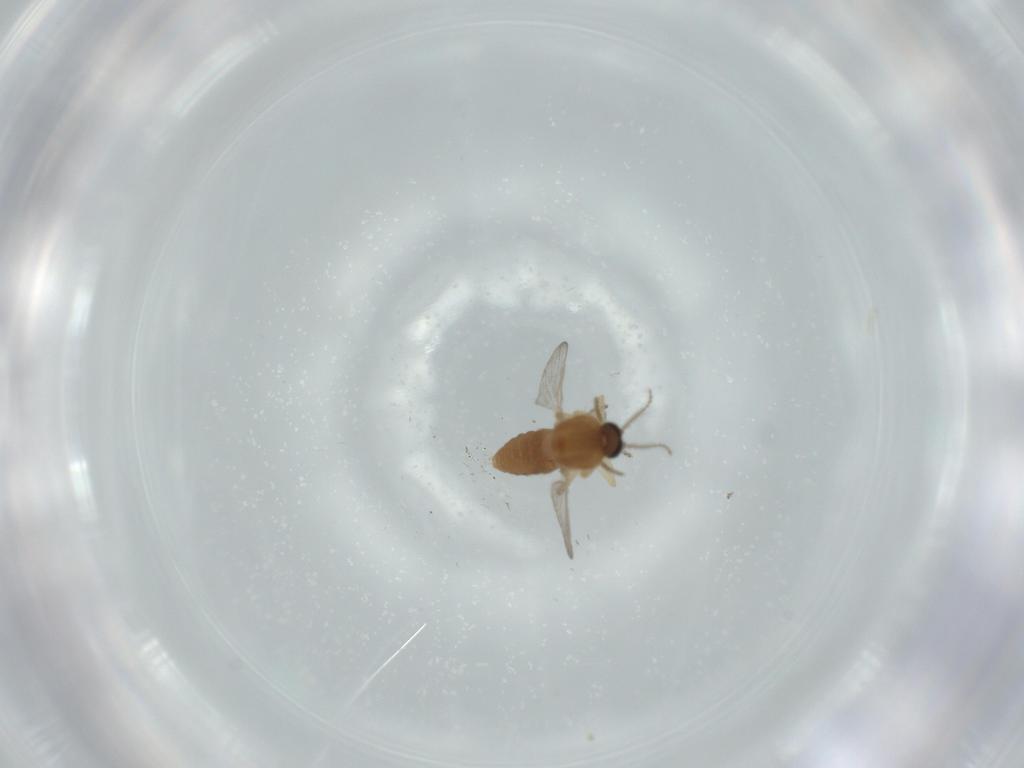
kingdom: Animalia
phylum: Arthropoda
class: Insecta
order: Diptera
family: Ceratopogonidae
